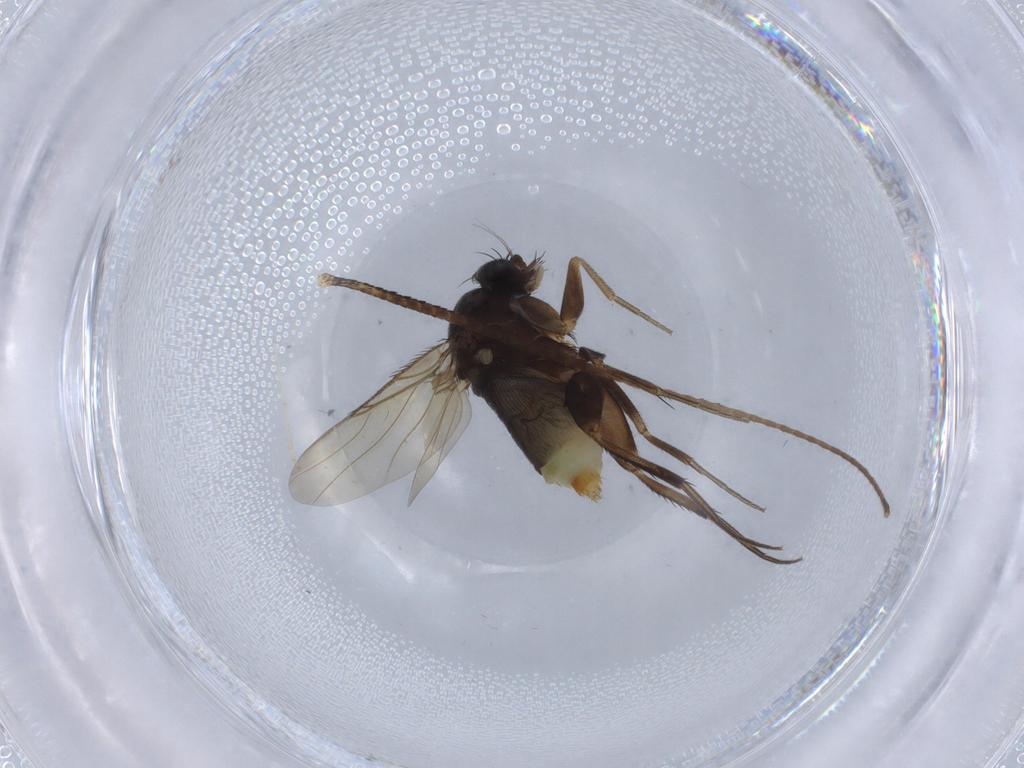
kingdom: Animalia
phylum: Arthropoda
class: Insecta
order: Diptera
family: Phoridae
